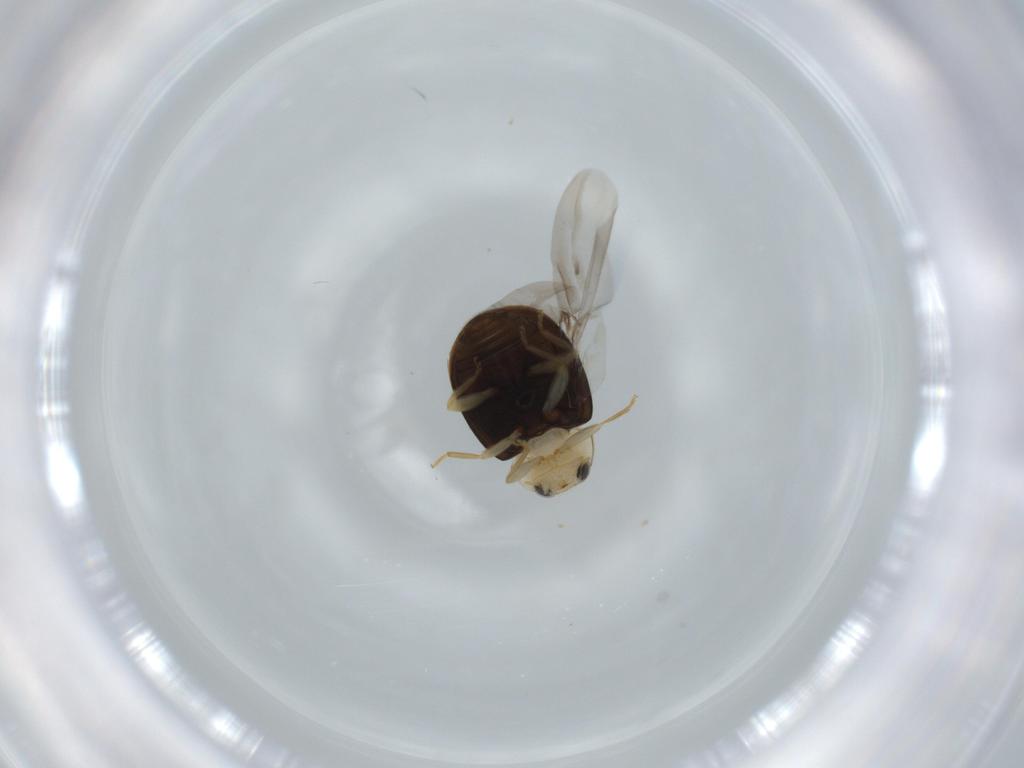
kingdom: Animalia
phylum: Arthropoda
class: Insecta
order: Coleoptera
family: Coccinellidae
